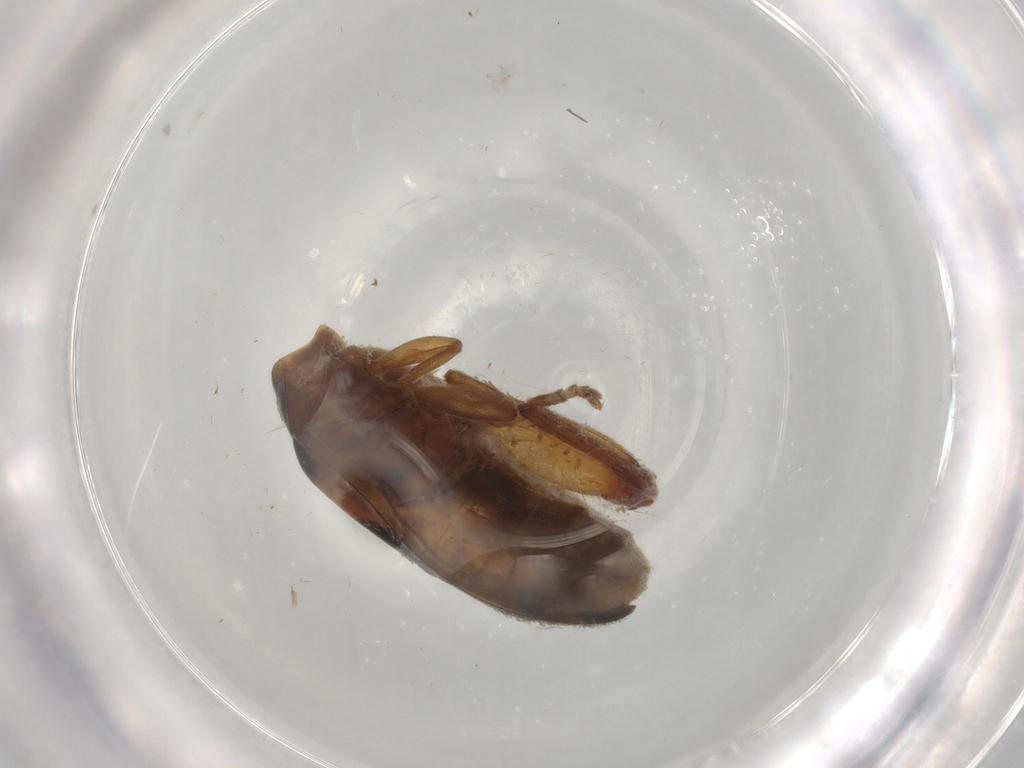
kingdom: Animalia
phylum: Arthropoda
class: Insecta
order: Coleoptera
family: Scirtidae
